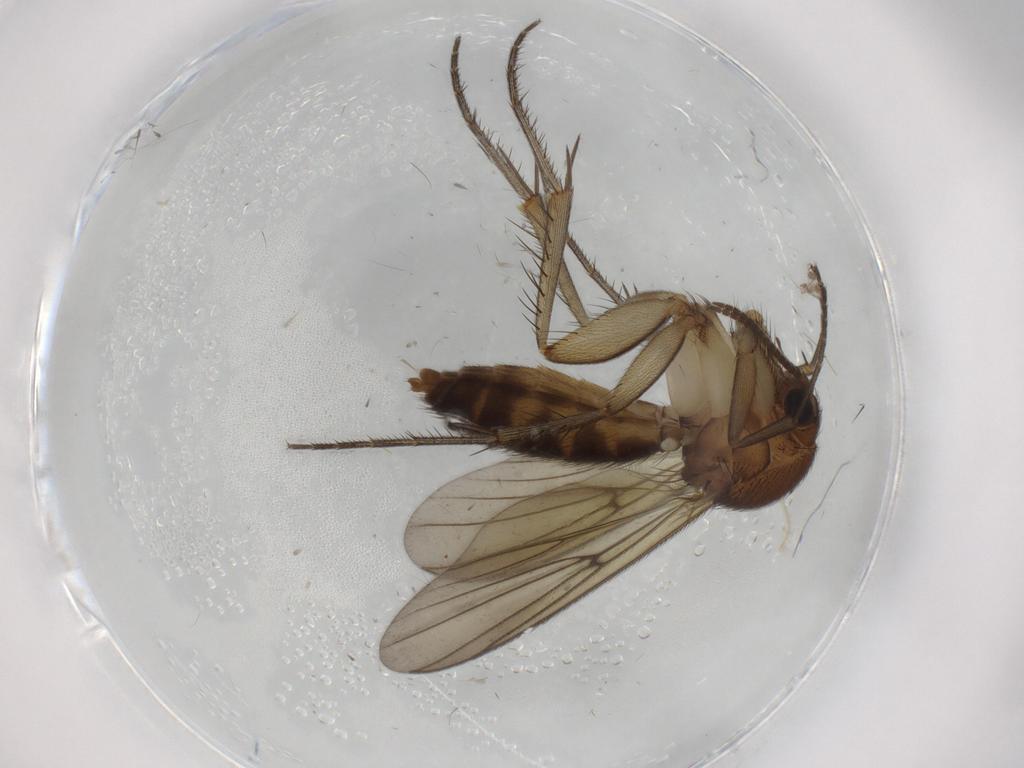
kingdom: Animalia
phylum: Arthropoda
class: Insecta
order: Diptera
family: Mycetophilidae
